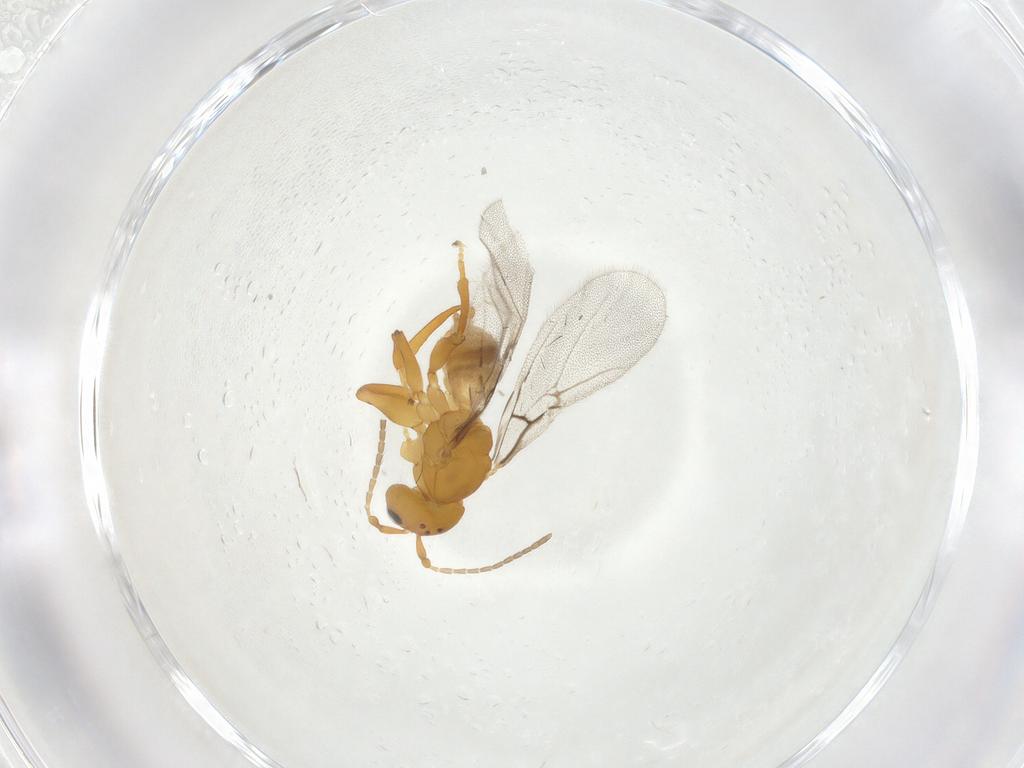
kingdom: Animalia
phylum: Arthropoda
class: Insecta
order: Hymenoptera
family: Cynipidae
